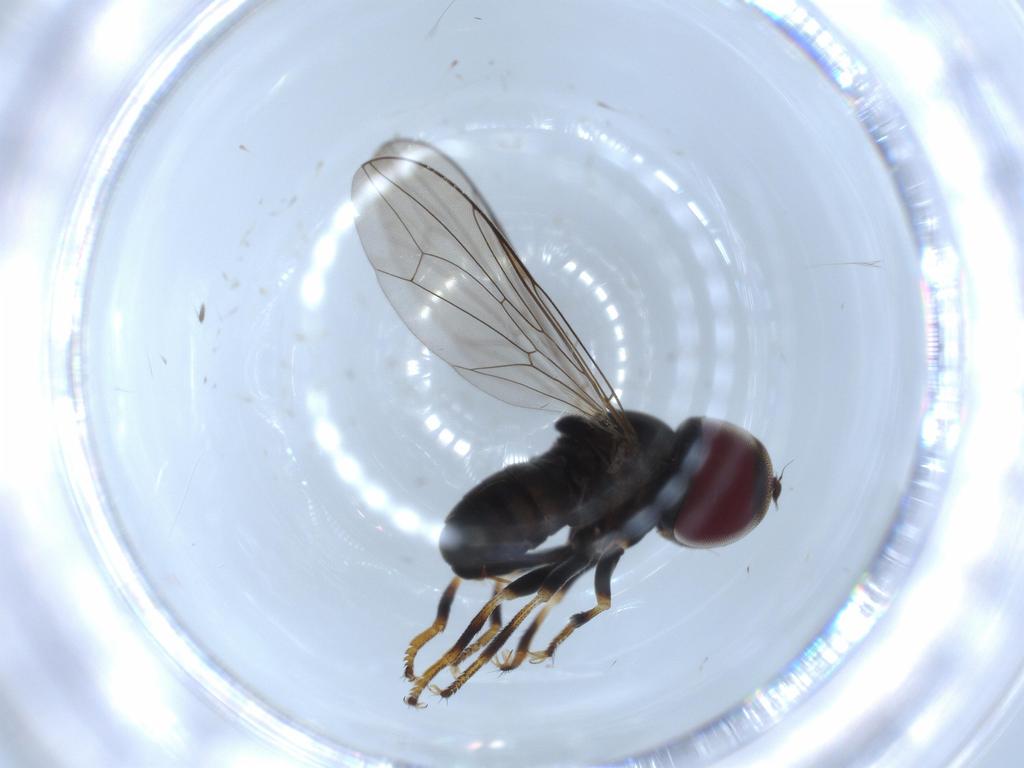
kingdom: Animalia
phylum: Arthropoda
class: Insecta
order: Diptera
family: Pipunculidae
